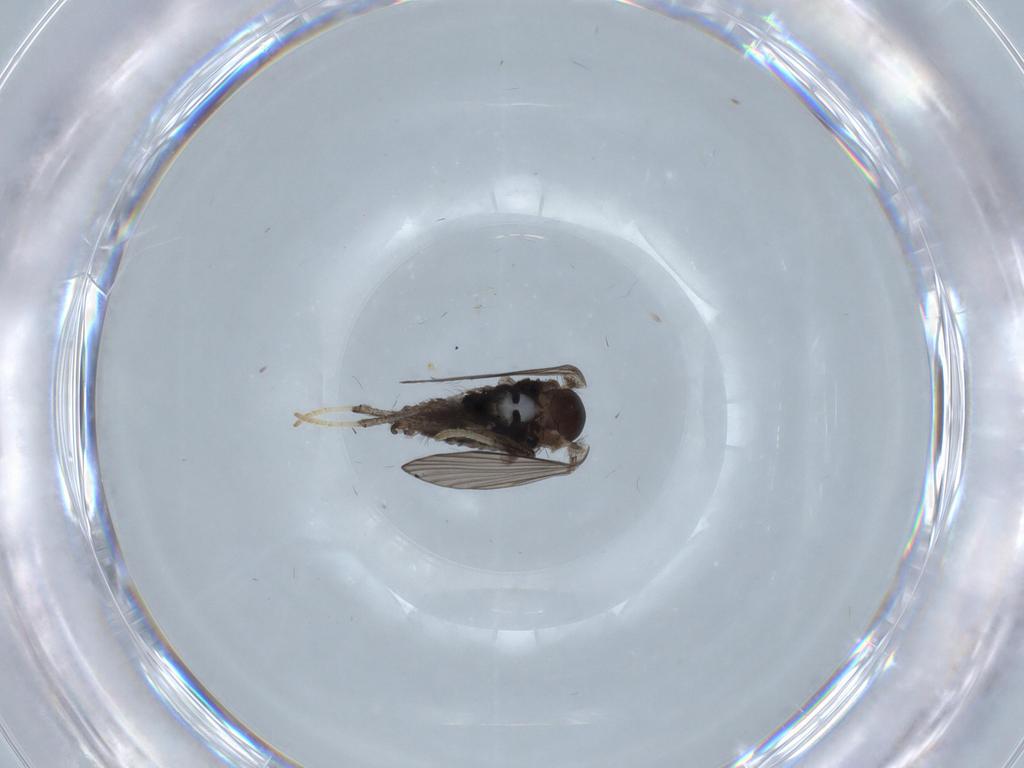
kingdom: Animalia
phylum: Arthropoda
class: Insecta
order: Diptera
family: Psychodidae
